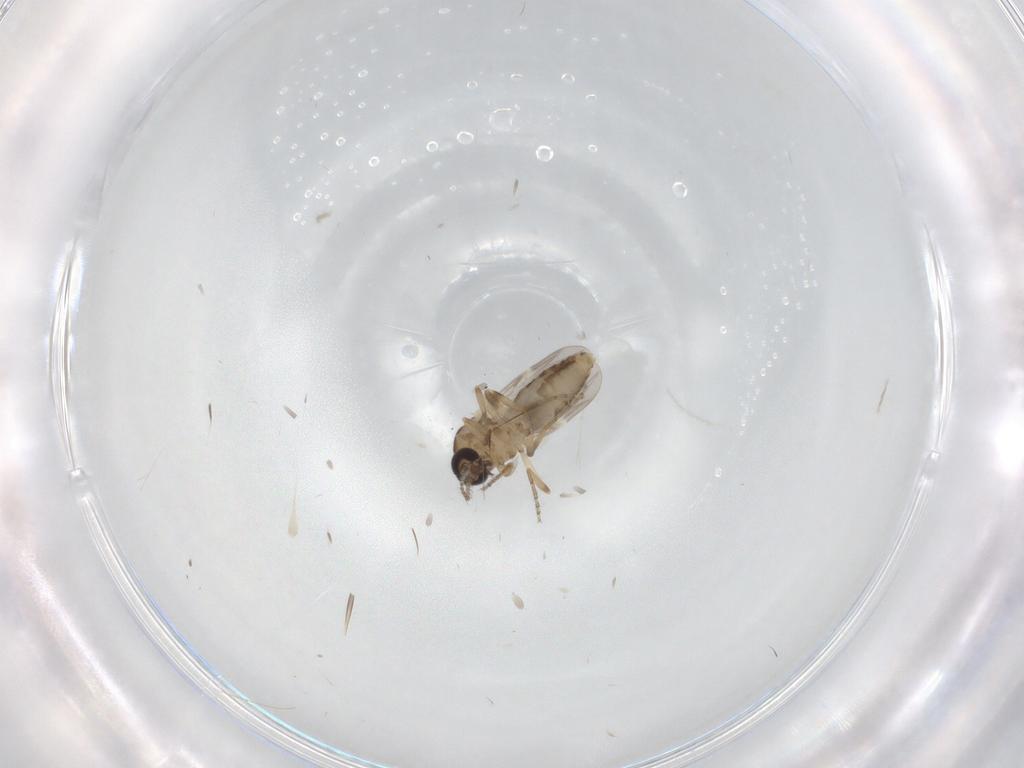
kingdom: Animalia
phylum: Arthropoda
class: Insecta
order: Diptera
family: Ceratopogonidae
